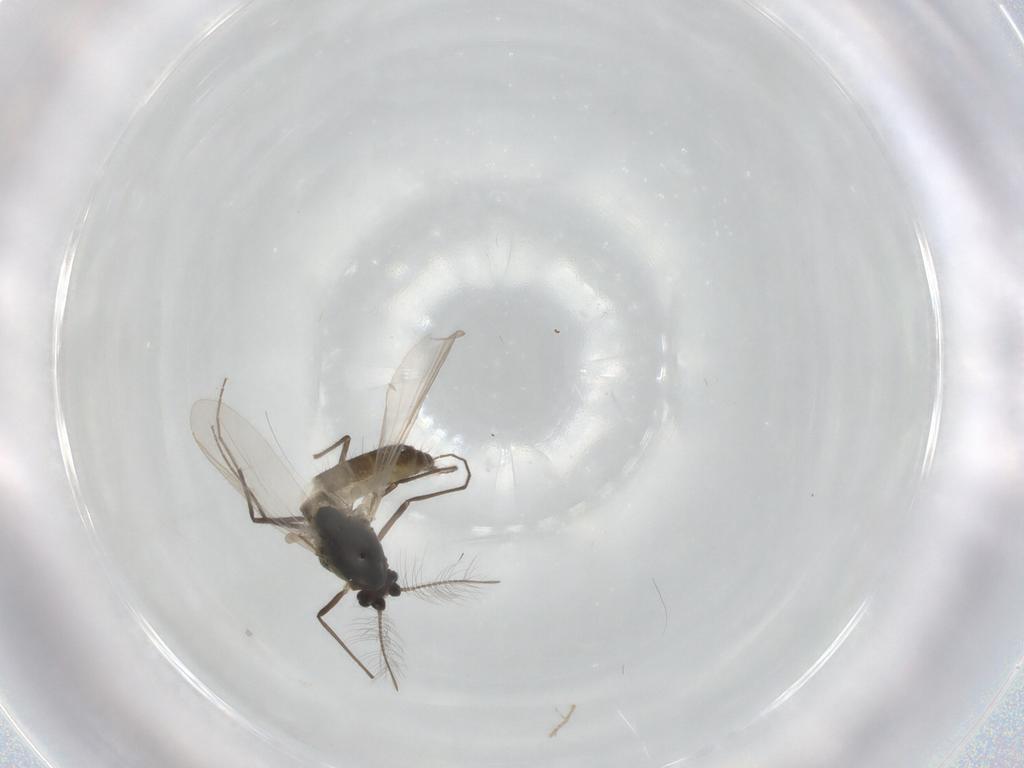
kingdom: Animalia
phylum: Arthropoda
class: Insecta
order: Diptera
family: Chironomidae
